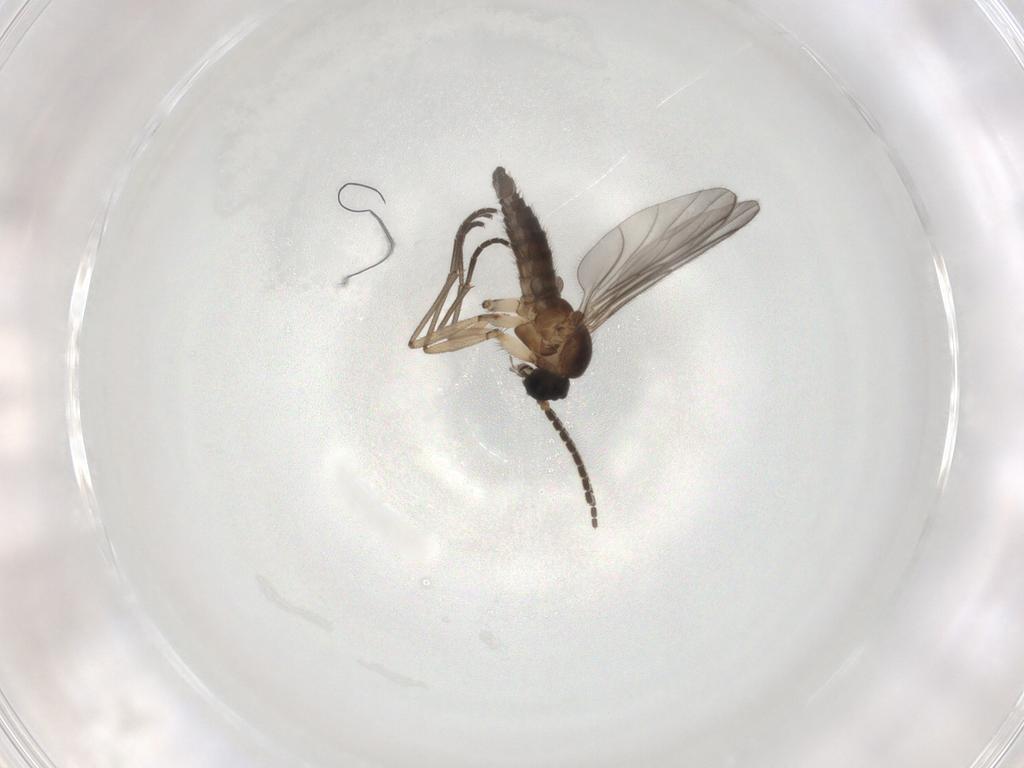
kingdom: Animalia
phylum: Arthropoda
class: Insecta
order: Diptera
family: Sciaridae
